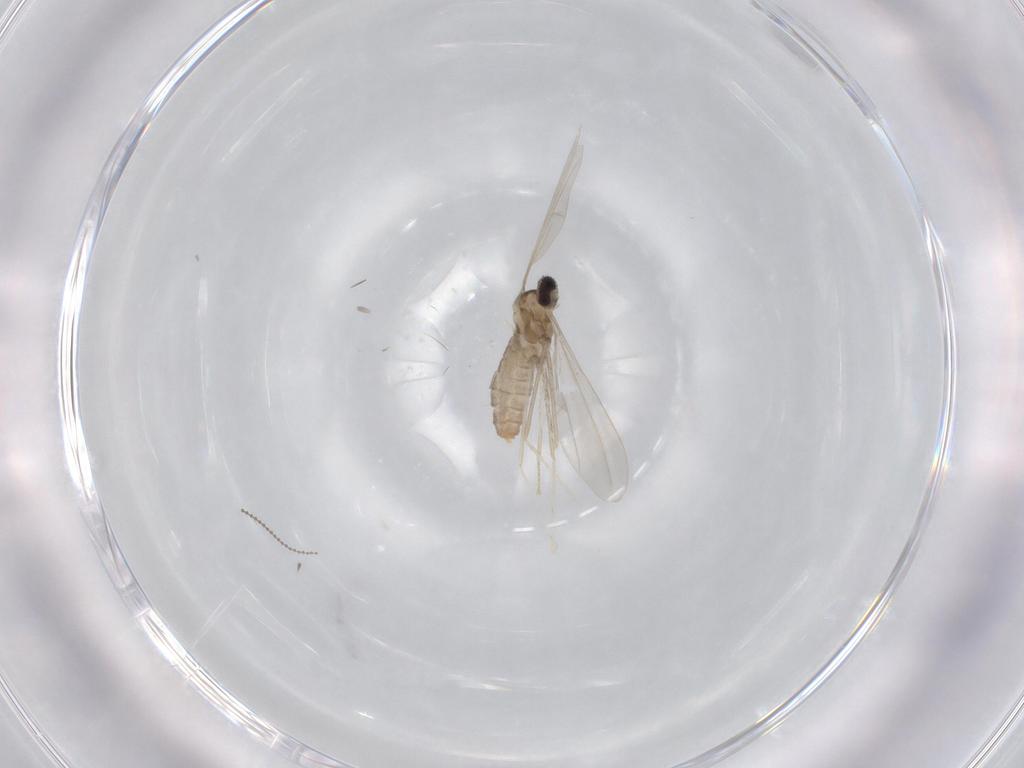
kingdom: Animalia
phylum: Arthropoda
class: Insecta
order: Diptera
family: Cecidomyiidae
